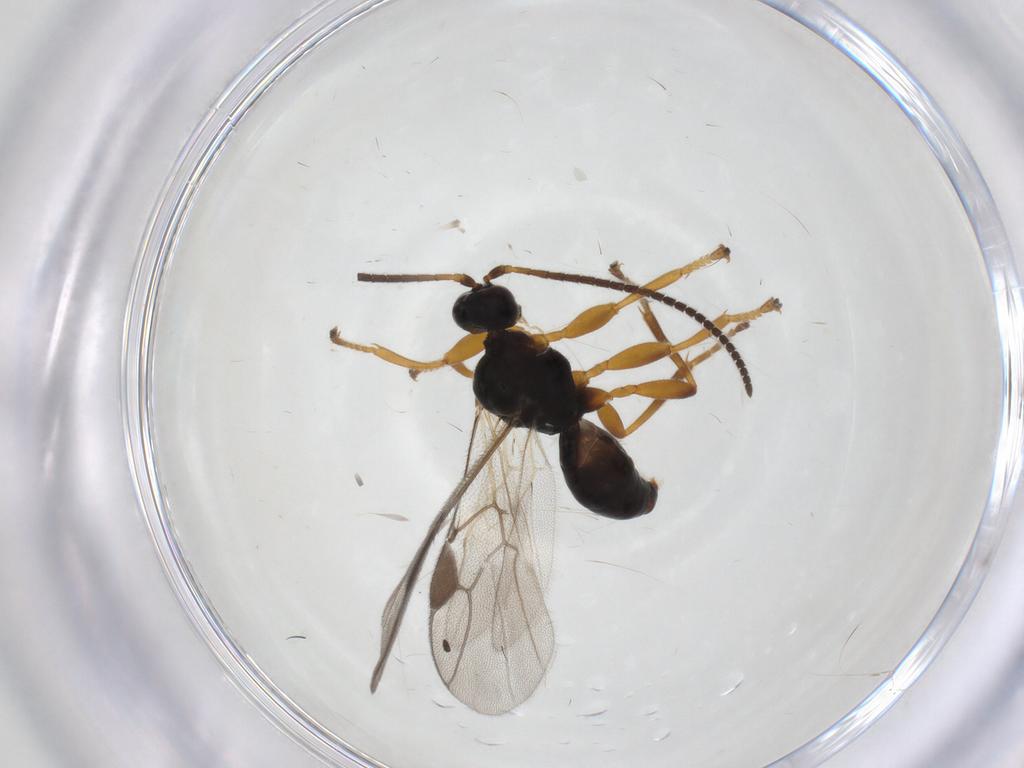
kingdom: Animalia
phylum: Arthropoda
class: Insecta
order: Hymenoptera
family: Braconidae
